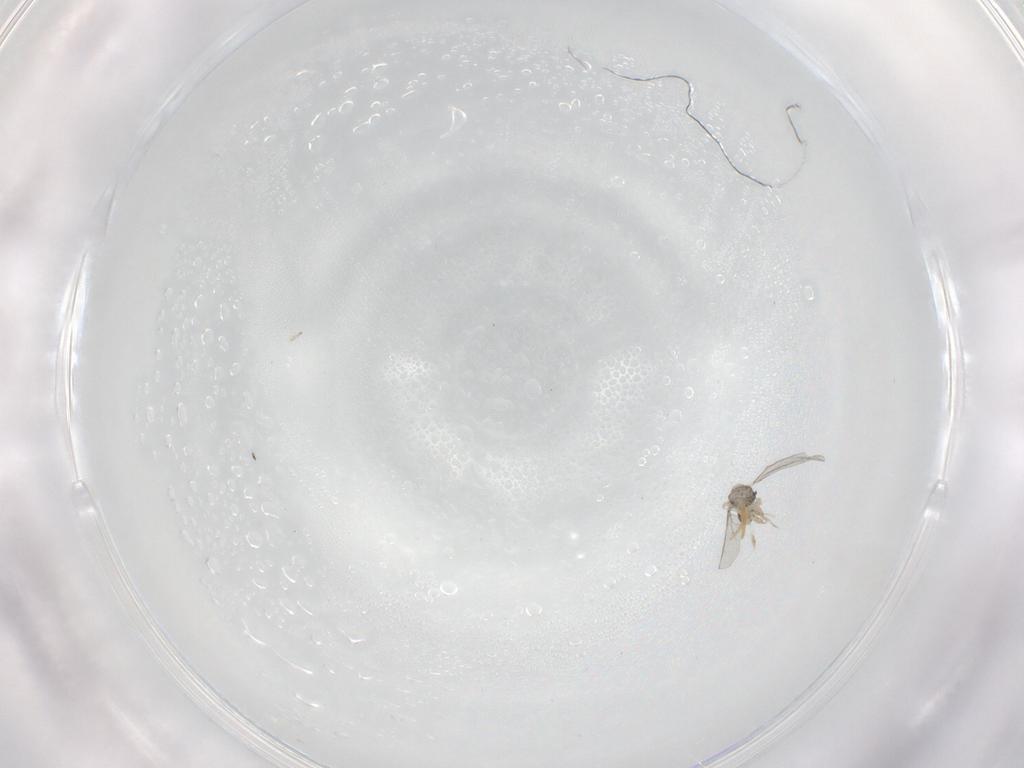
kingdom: Animalia
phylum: Arthropoda
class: Insecta
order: Diptera
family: Cecidomyiidae
